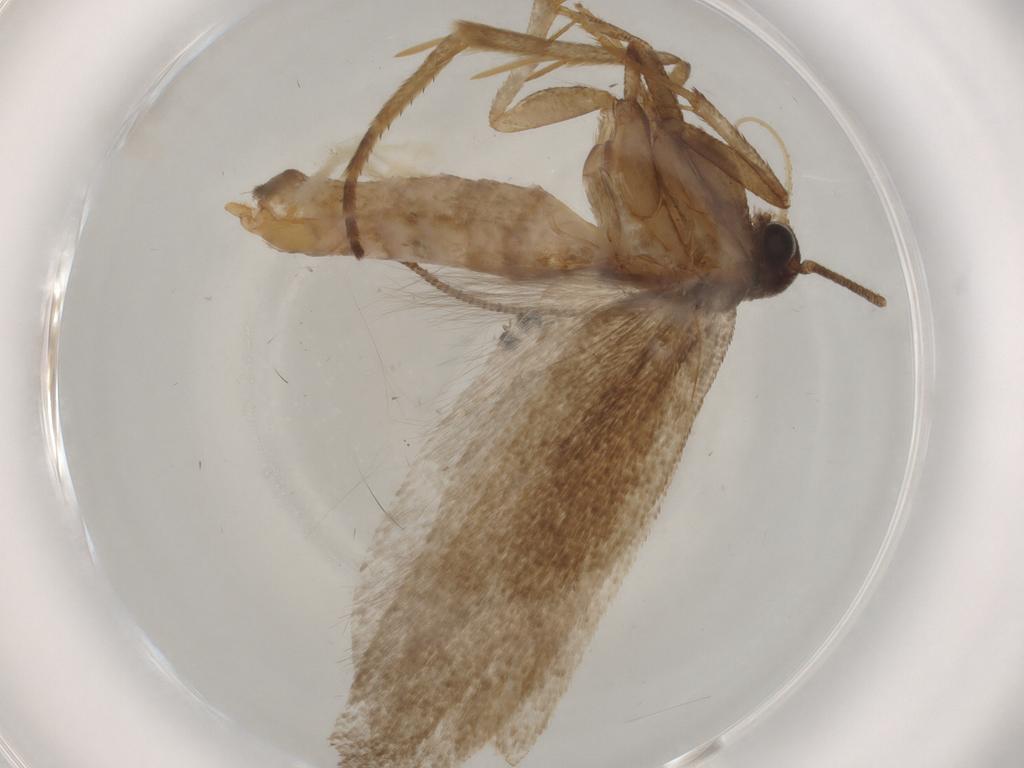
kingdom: Animalia
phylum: Arthropoda
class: Insecta
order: Lepidoptera
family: Gelechiidae
